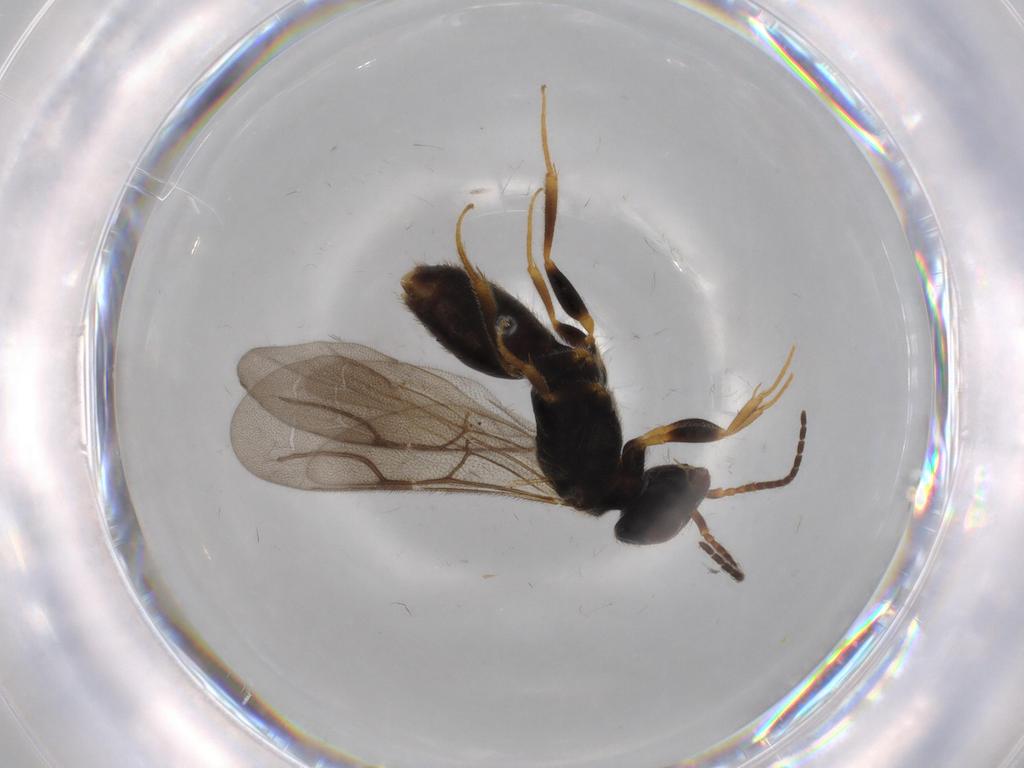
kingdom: Animalia
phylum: Arthropoda
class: Insecta
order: Hymenoptera
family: Bethylidae
